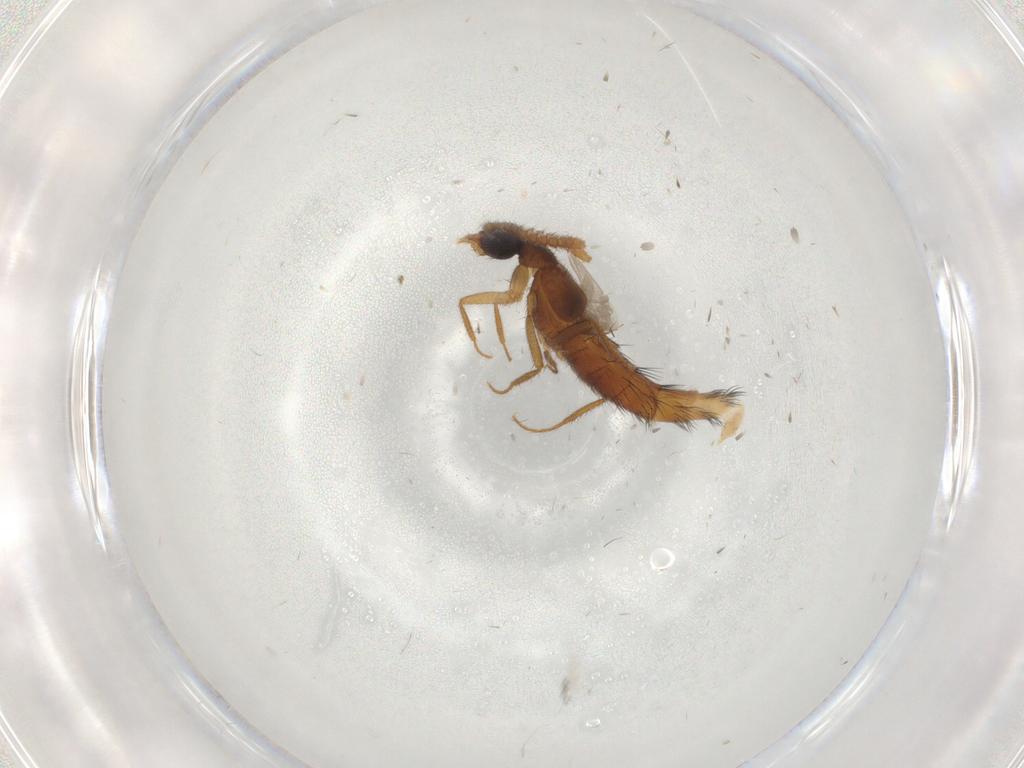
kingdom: Animalia
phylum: Arthropoda
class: Insecta
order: Coleoptera
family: Staphylinidae
